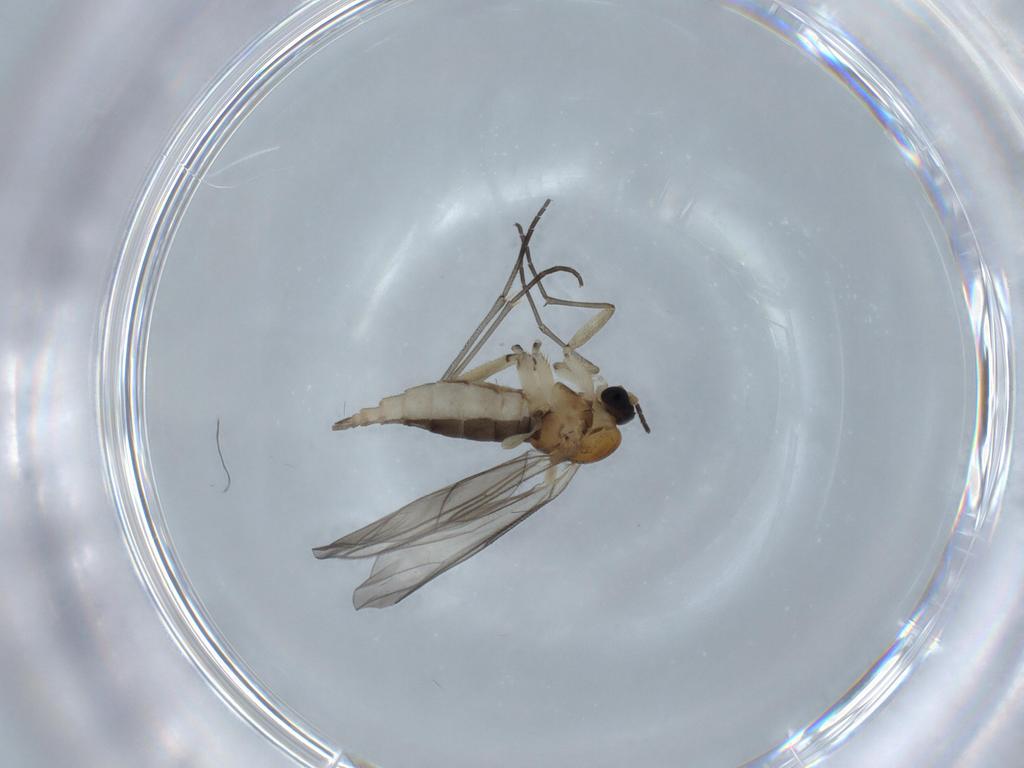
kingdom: Animalia
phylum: Arthropoda
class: Insecta
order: Diptera
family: Sciaridae
